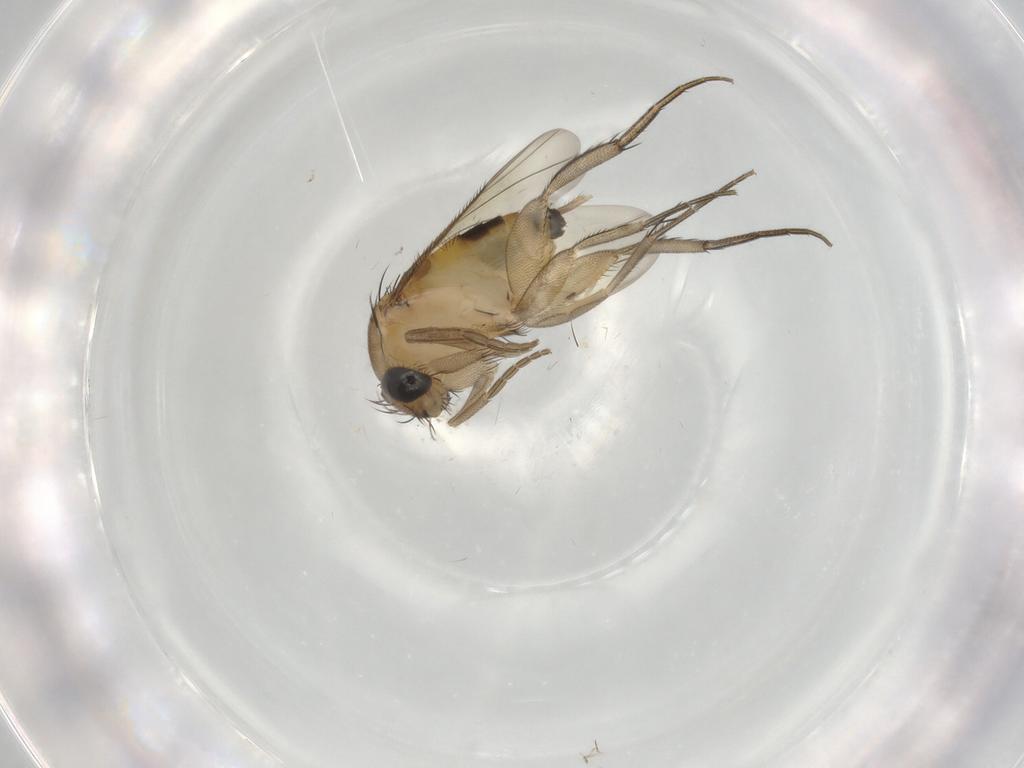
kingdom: Animalia
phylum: Arthropoda
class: Insecta
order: Diptera
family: Phoridae
